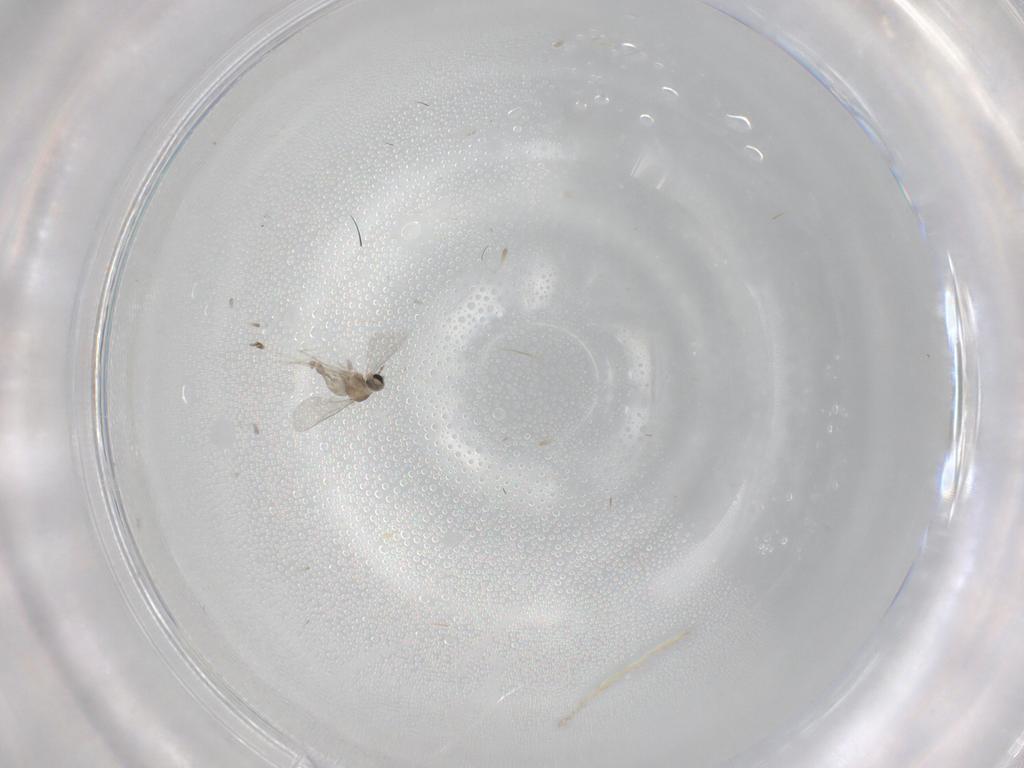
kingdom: Animalia
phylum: Arthropoda
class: Insecta
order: Diptera
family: Cecidomyiidae
